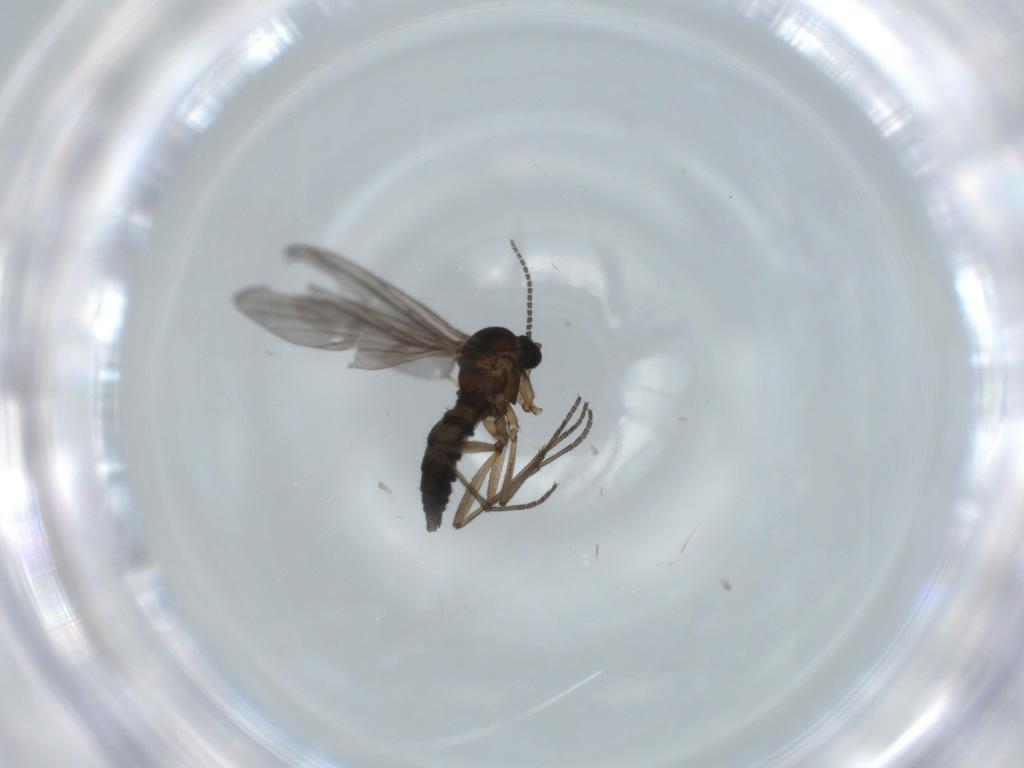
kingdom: Animalia
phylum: Arthropoda
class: Insecta
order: Diptera
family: Sciaridae
